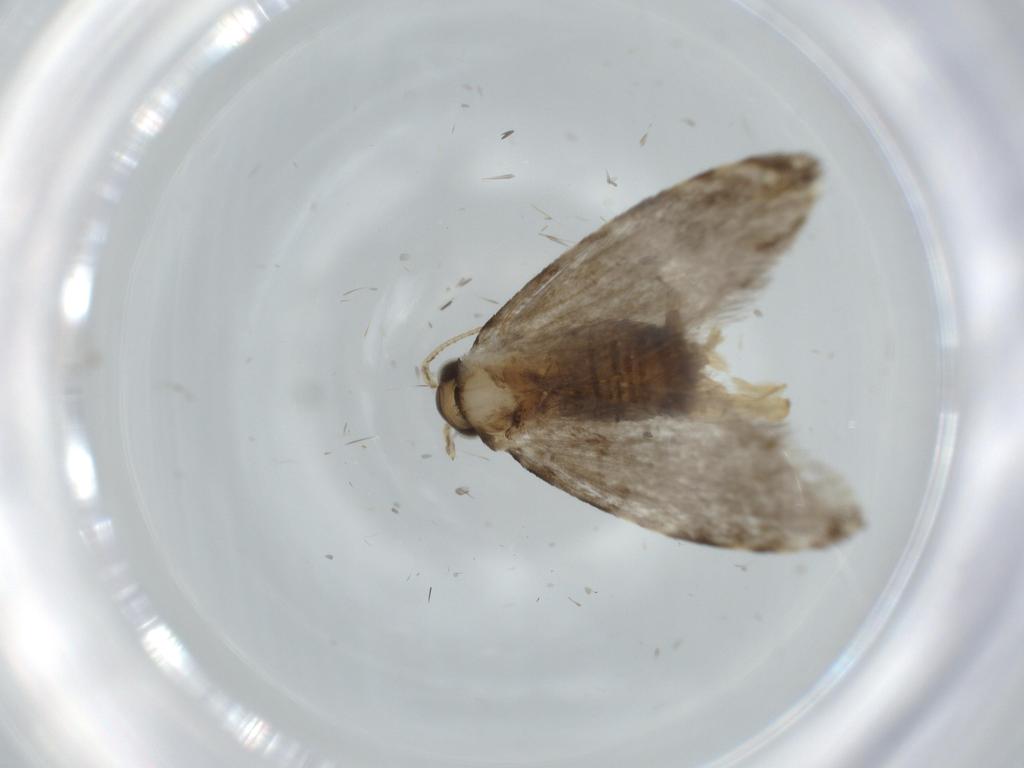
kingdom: Animalia
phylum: Arthropoda
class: Insecta
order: Lepidoptera
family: Tineidae
